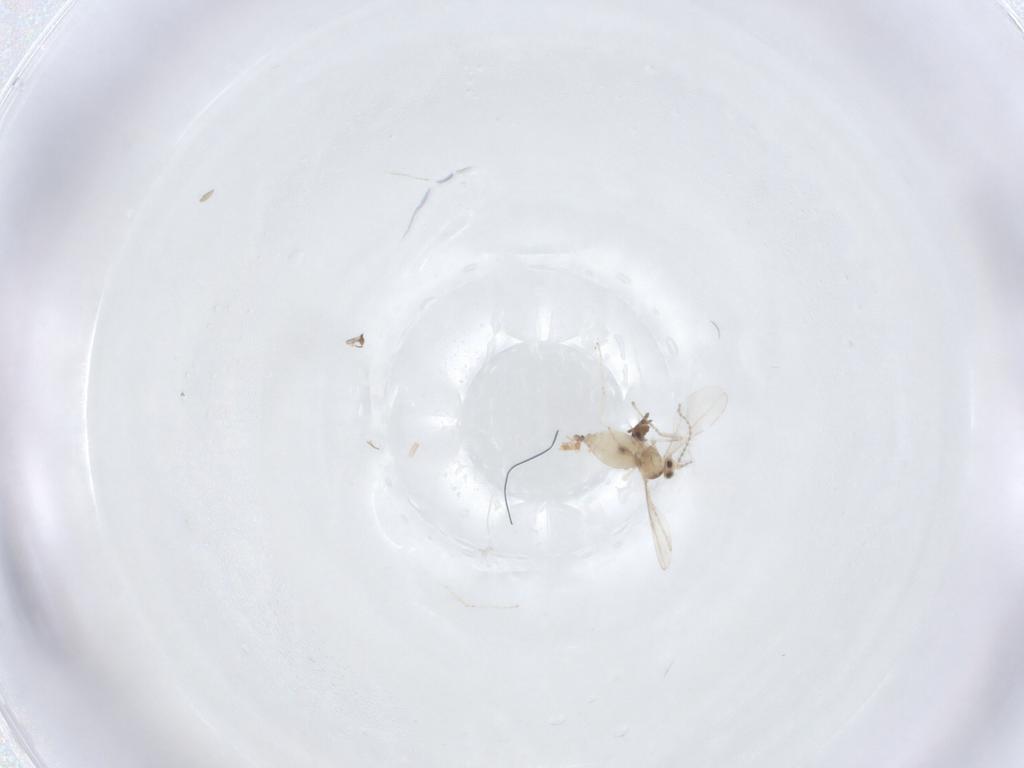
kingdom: Animalia
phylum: Arthropoda
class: Insecta
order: Diptera
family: Cecidomyiidae
